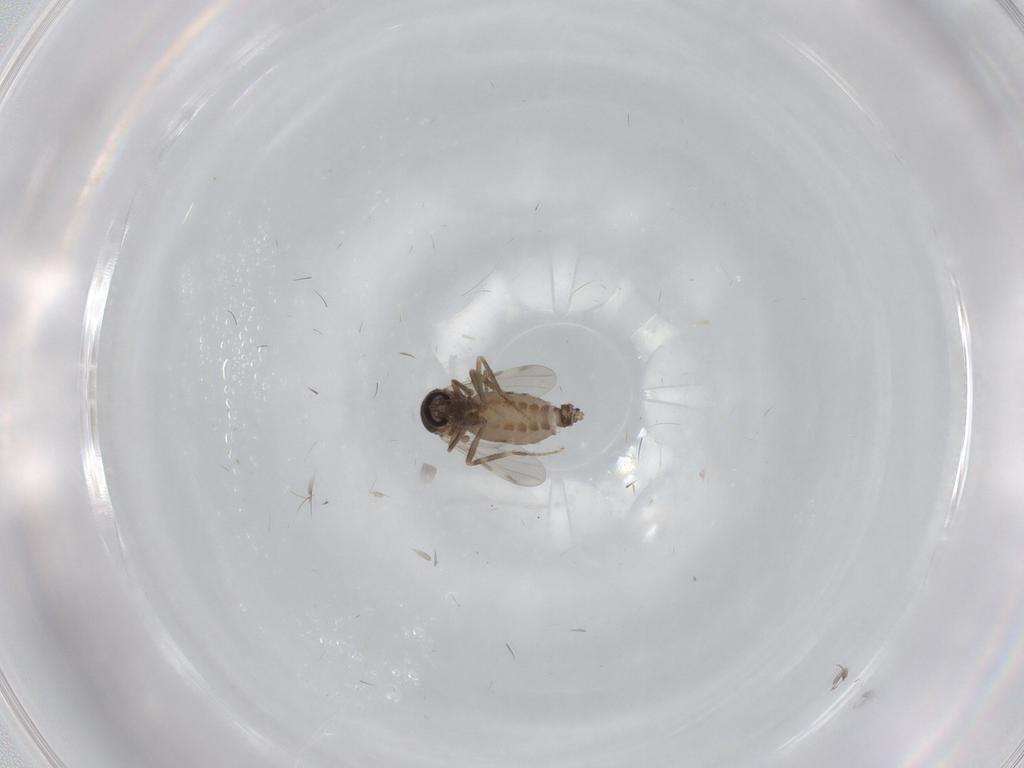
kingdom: Animalia
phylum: Arthropoda
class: Insecta
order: Diptera
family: Ceratopogonidae
